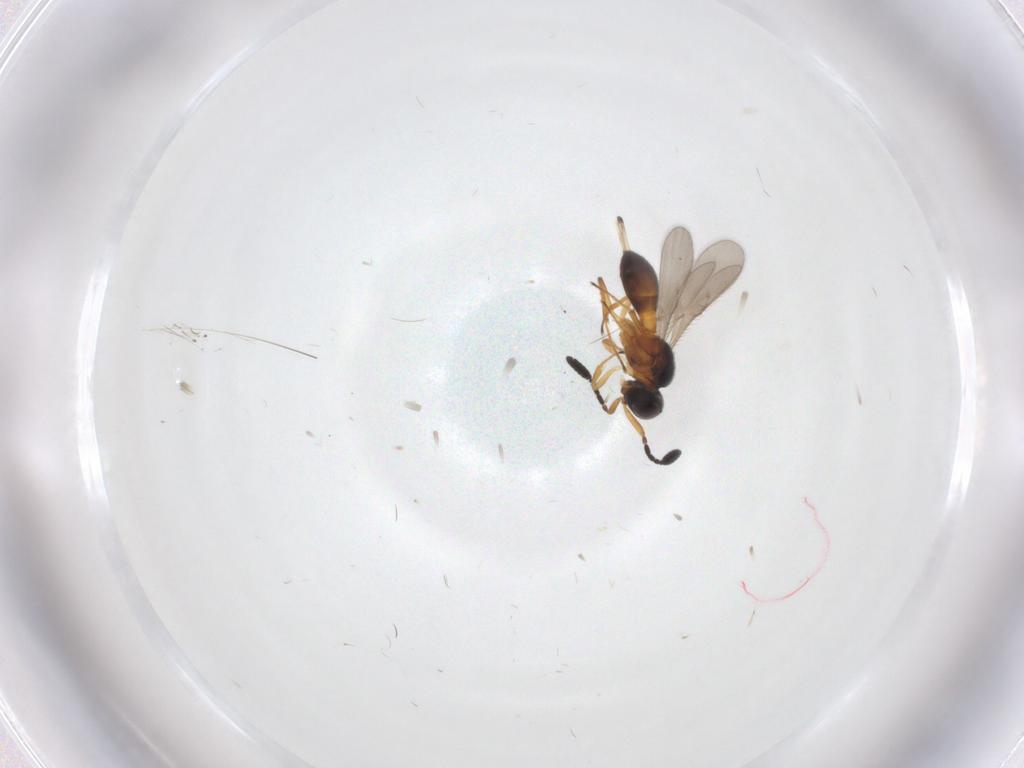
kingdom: Animalia
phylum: Arthropoda
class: Insecta
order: Hymenoptera
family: Scelionidae
